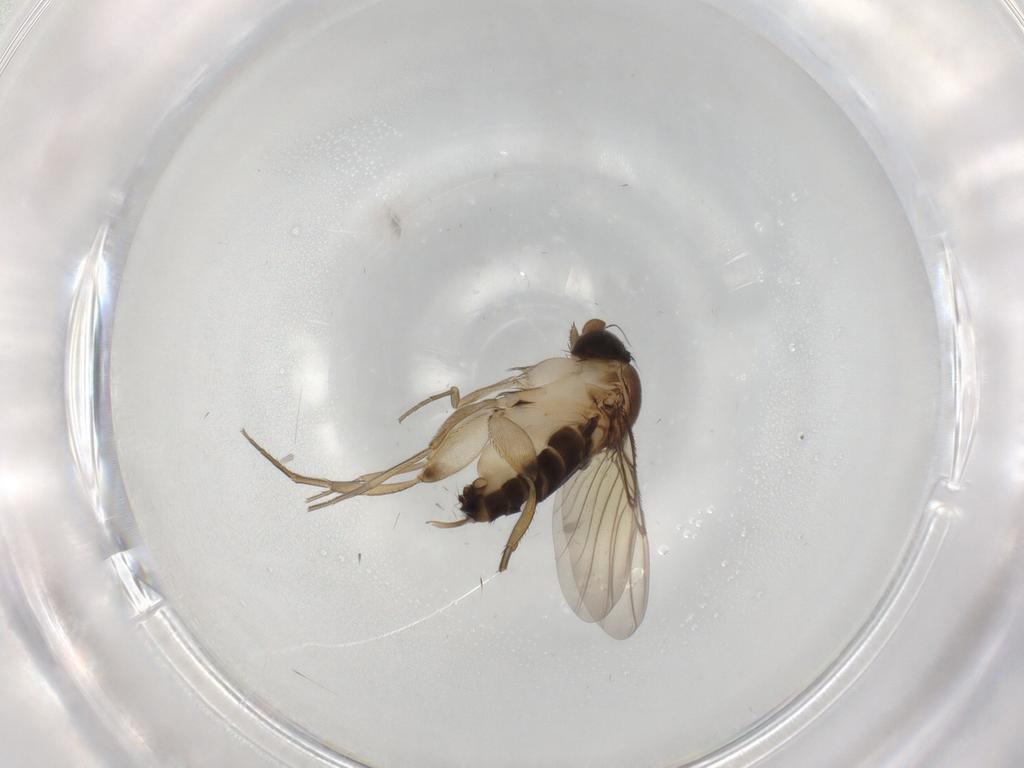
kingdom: Animalia
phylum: Arthropoda
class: Insecta
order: Diptera
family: Phoridae
